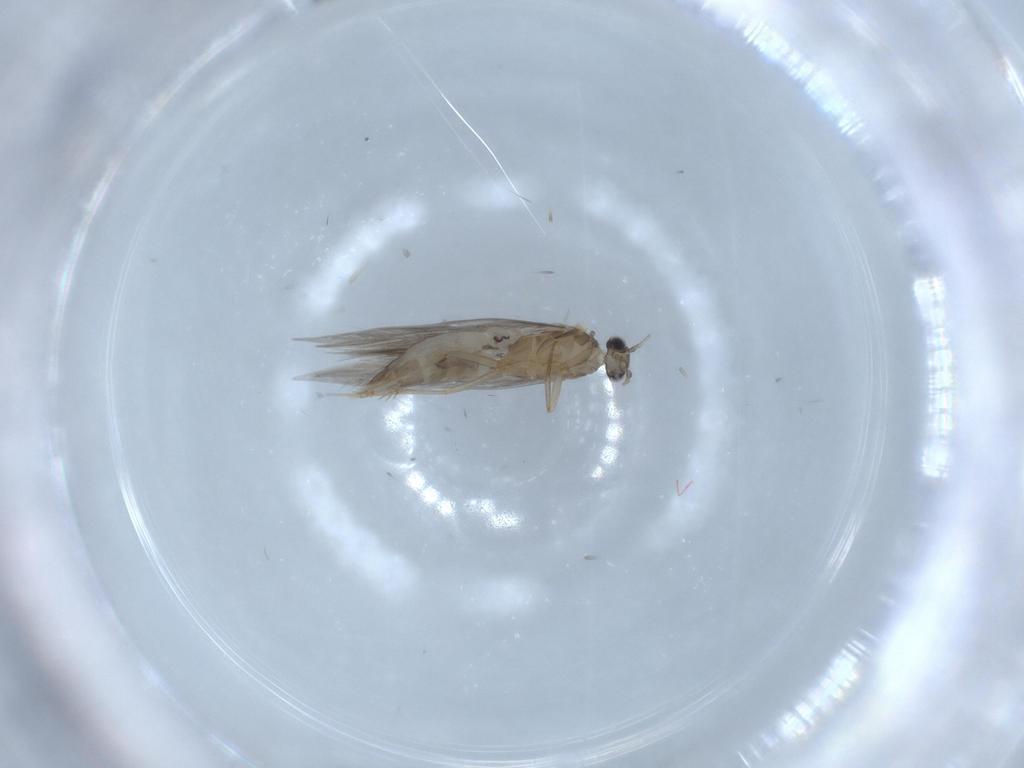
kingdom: Animalia
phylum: Arthropoda
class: Insecta
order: Trichoptera
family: Hydroptilidae
